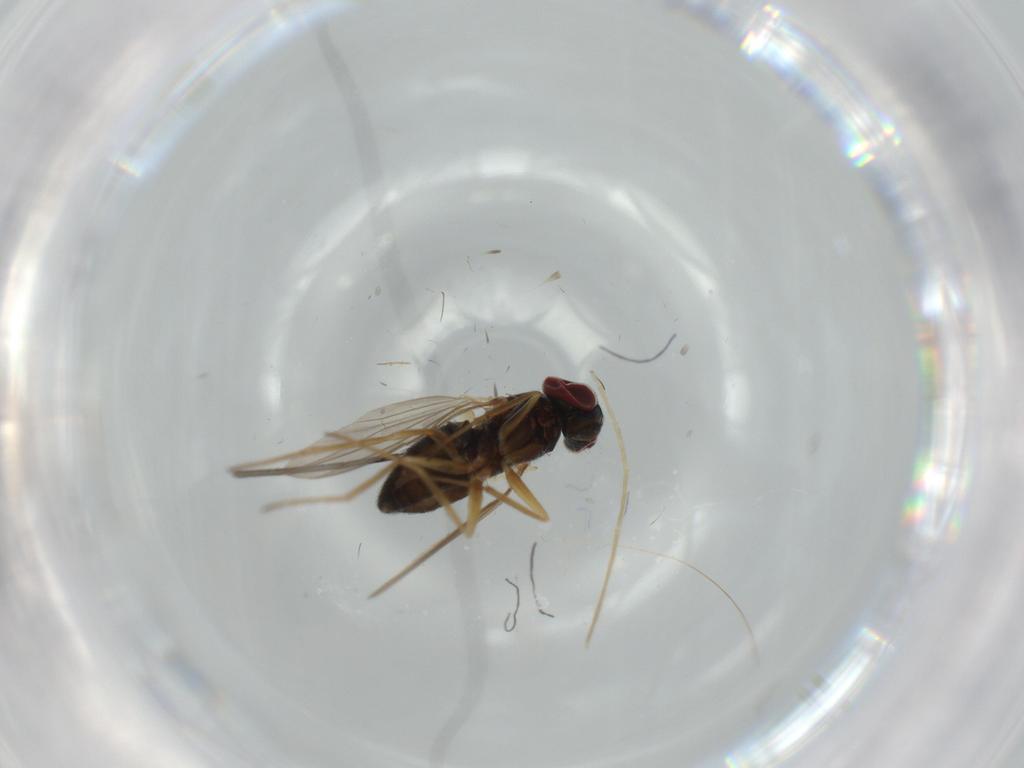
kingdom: Animalia
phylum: Arthropoda
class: Insecta
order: Diptera
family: Chironomidae
